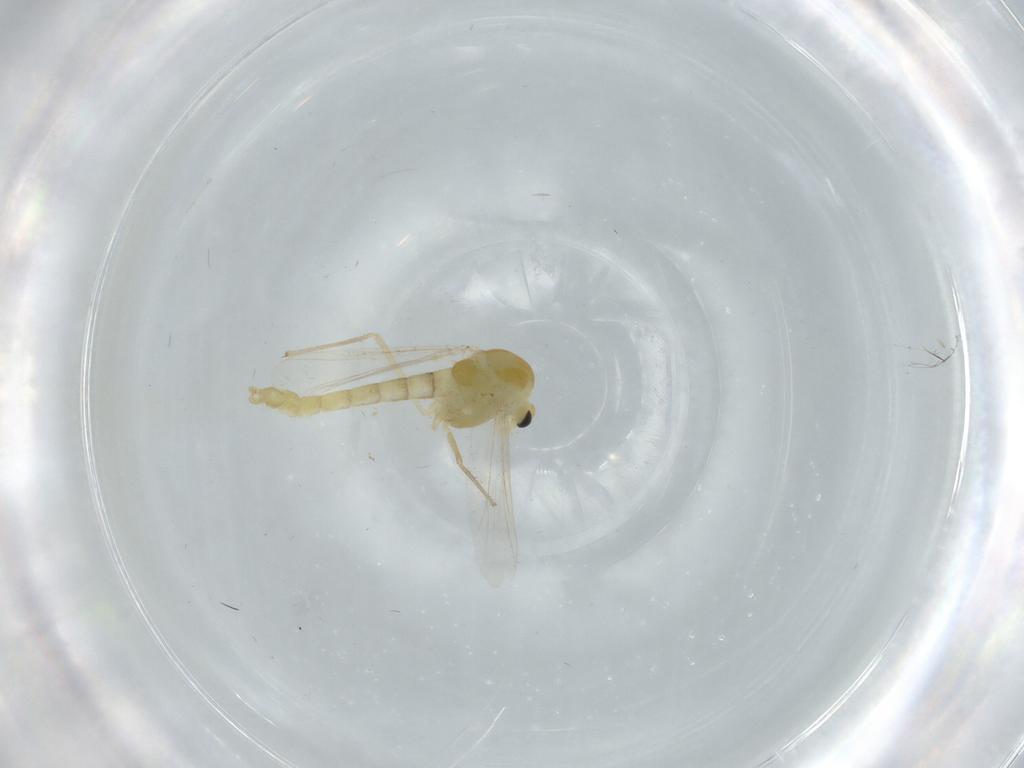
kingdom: Animalia
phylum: Arthropoda
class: Insecta
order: Diptera
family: Chironomidae
